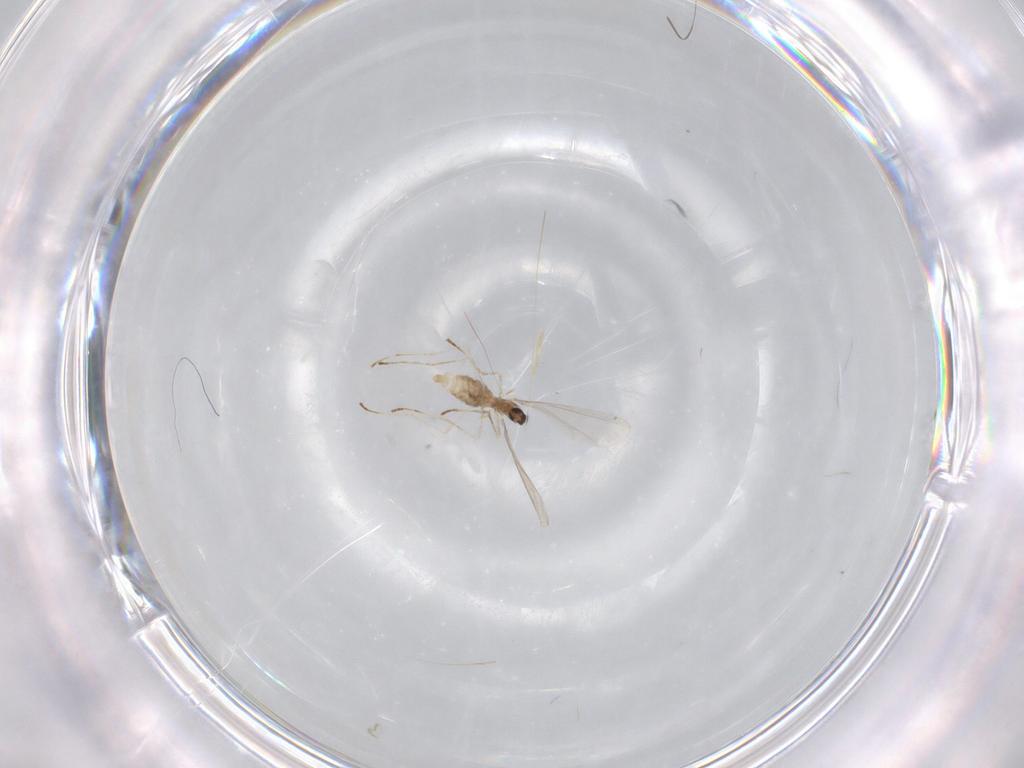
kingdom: Animalia
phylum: Arthropoda
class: Insecta
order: Diptera
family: Cecidomyiidae
